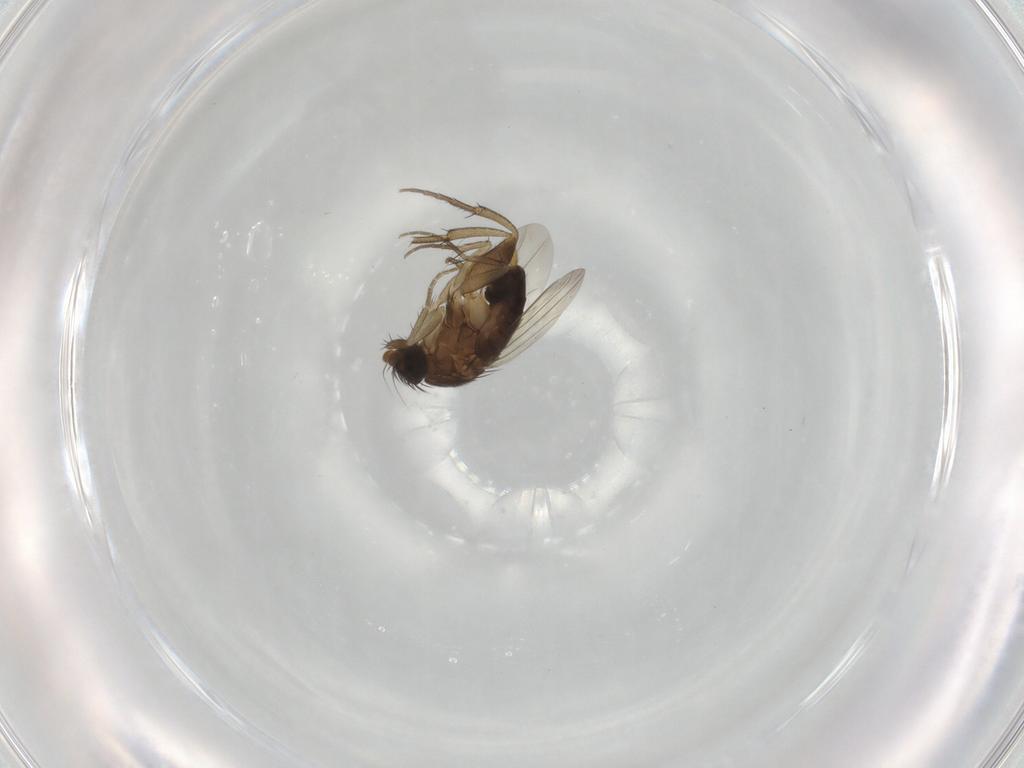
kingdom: Animalia
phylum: Arthropoda
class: Insecta
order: Diptera
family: Phoridae
